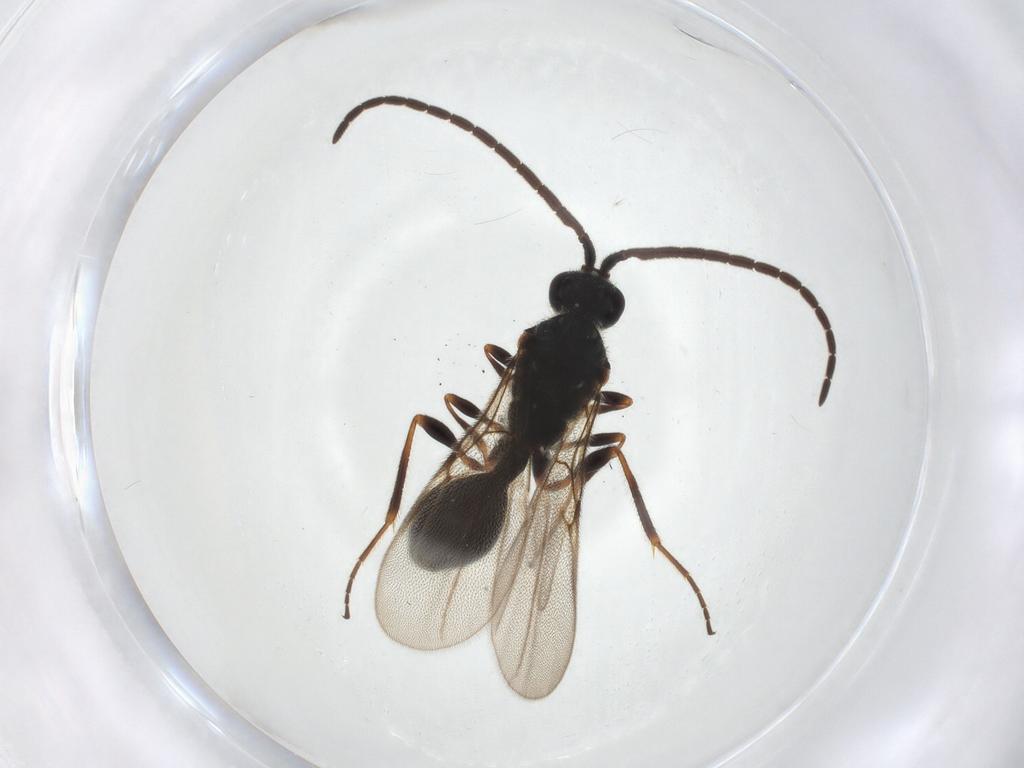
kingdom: Animalia
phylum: Arthropoda
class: Insecta
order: Hymenoptera
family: Diapriidae
